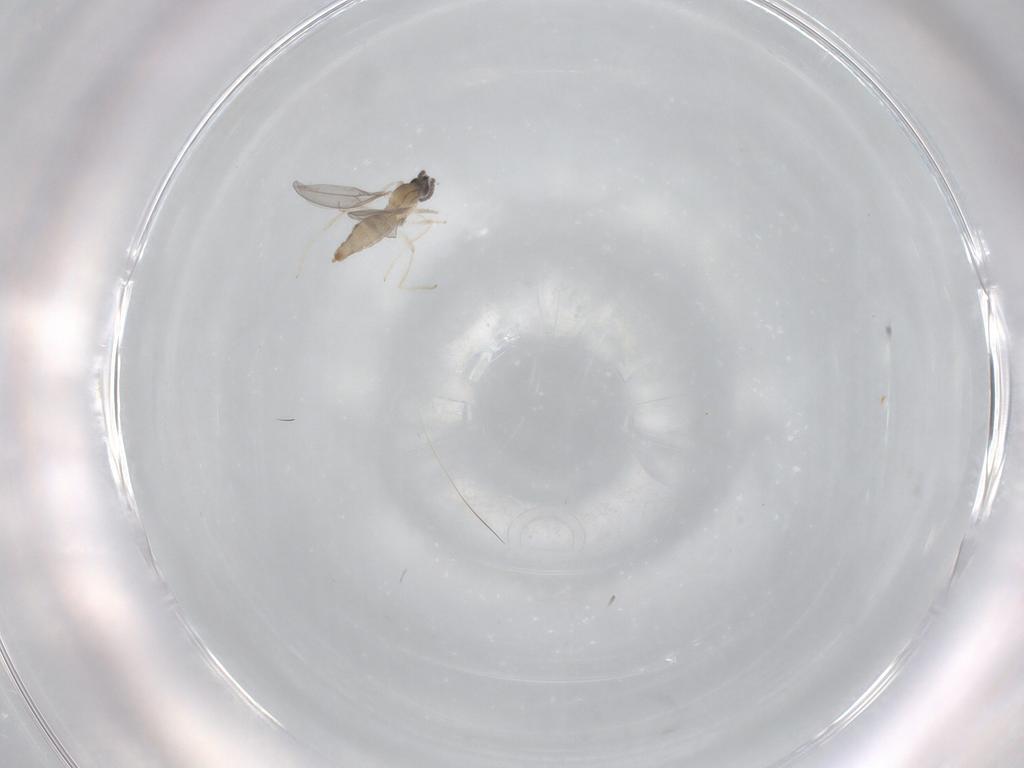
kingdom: Animalia
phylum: Arthropoda
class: Insecta
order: Diptera
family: Cecidomyiidae
